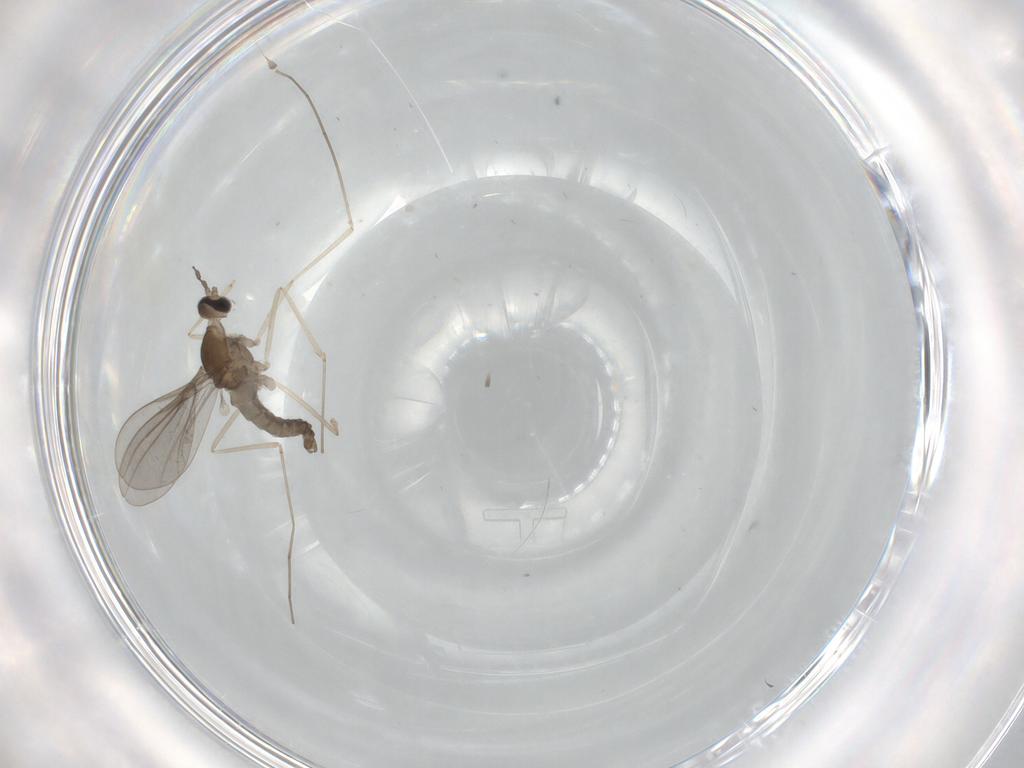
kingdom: Animalia
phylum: Arthropoda
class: Insecta
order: Diptera
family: Cecidomyiidae
